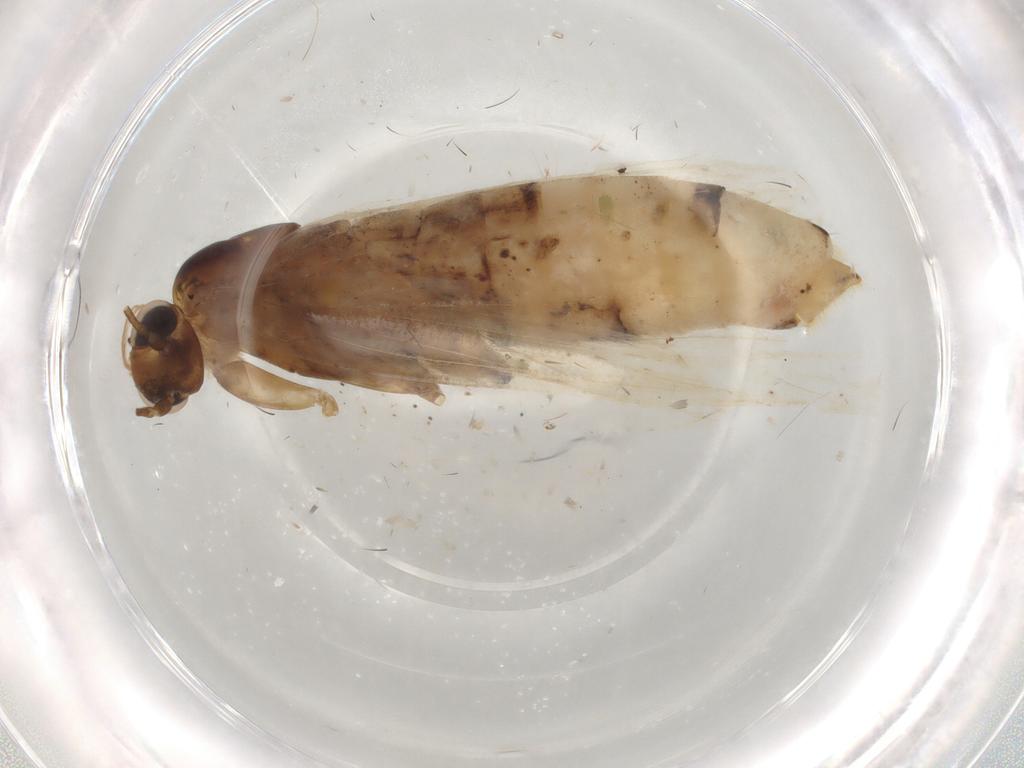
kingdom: Animalia
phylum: Arthropoda
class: Insecta
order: Lepidoptera
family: Crambidae
